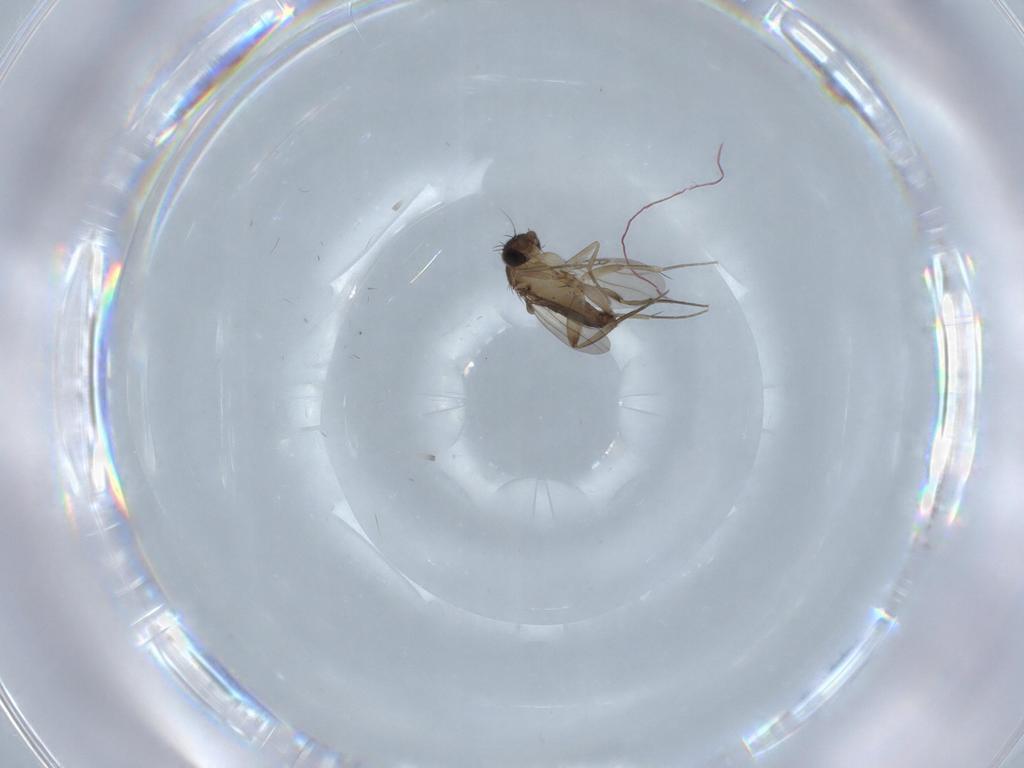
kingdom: Animalia
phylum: Arthropoda
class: Insecta
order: Diptera
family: Phoridae
